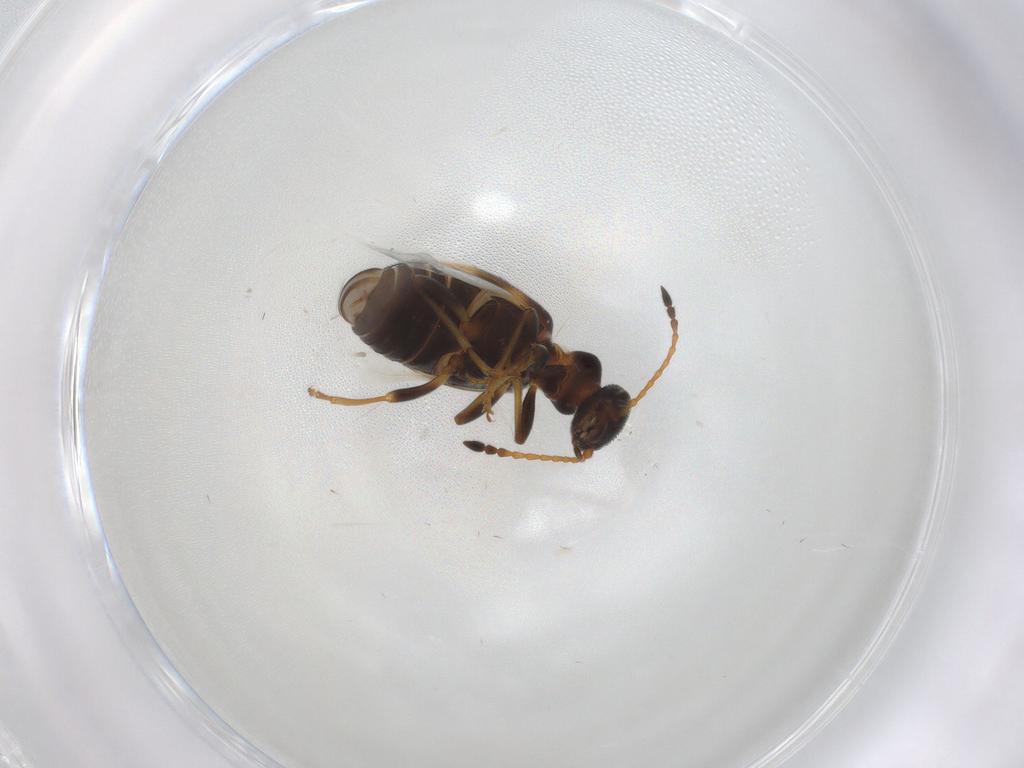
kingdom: Animalia
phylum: Arthropoda
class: Insecta
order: Coleoptera
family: Anthicidae
